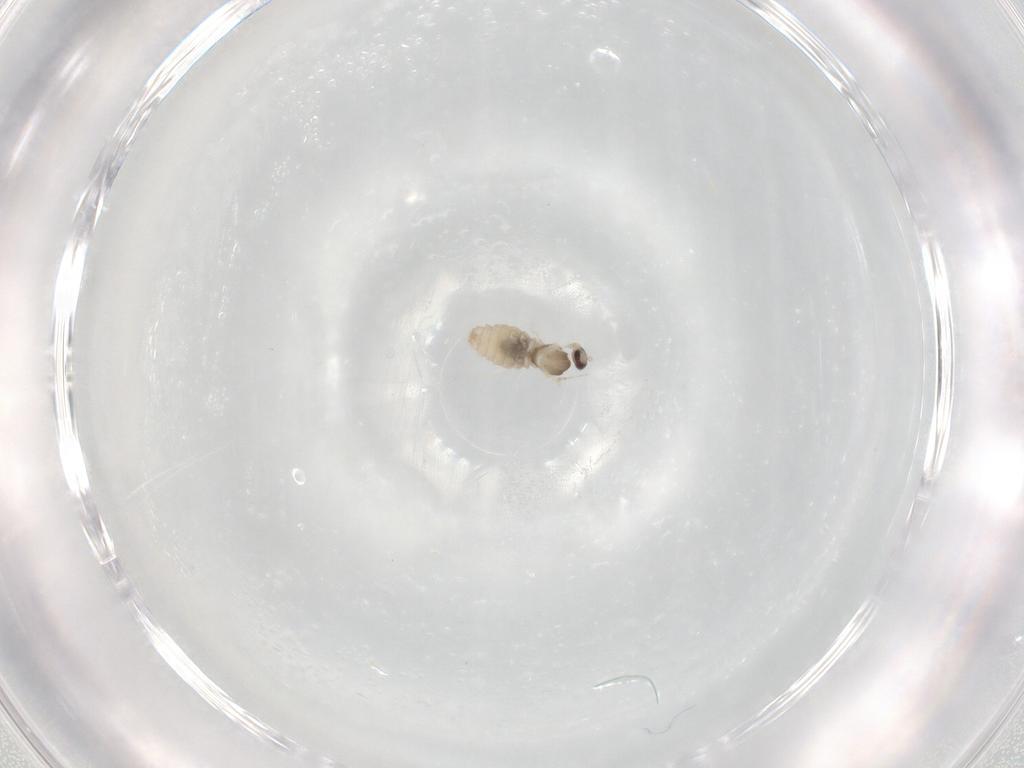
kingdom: Animalia
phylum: Arthropoda
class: Insecta
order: Diptera
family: Cecidomyiidae
